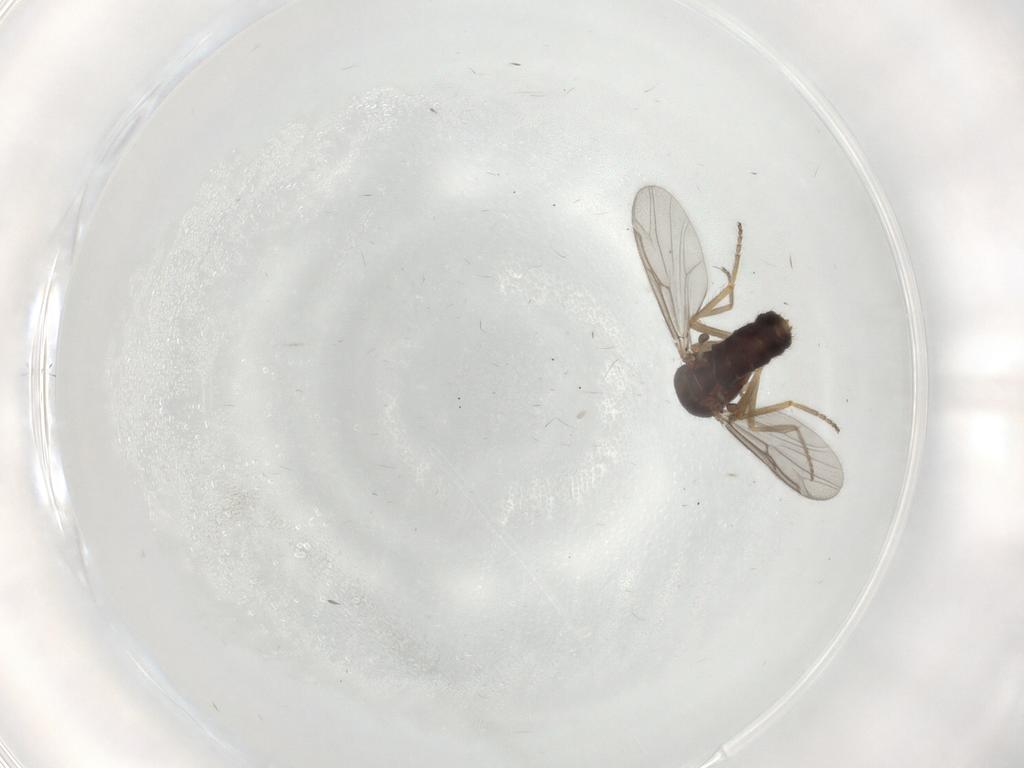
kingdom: Animalia
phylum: Arthropoda
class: Insecta
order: Diptera
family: Ceratopogonidae
